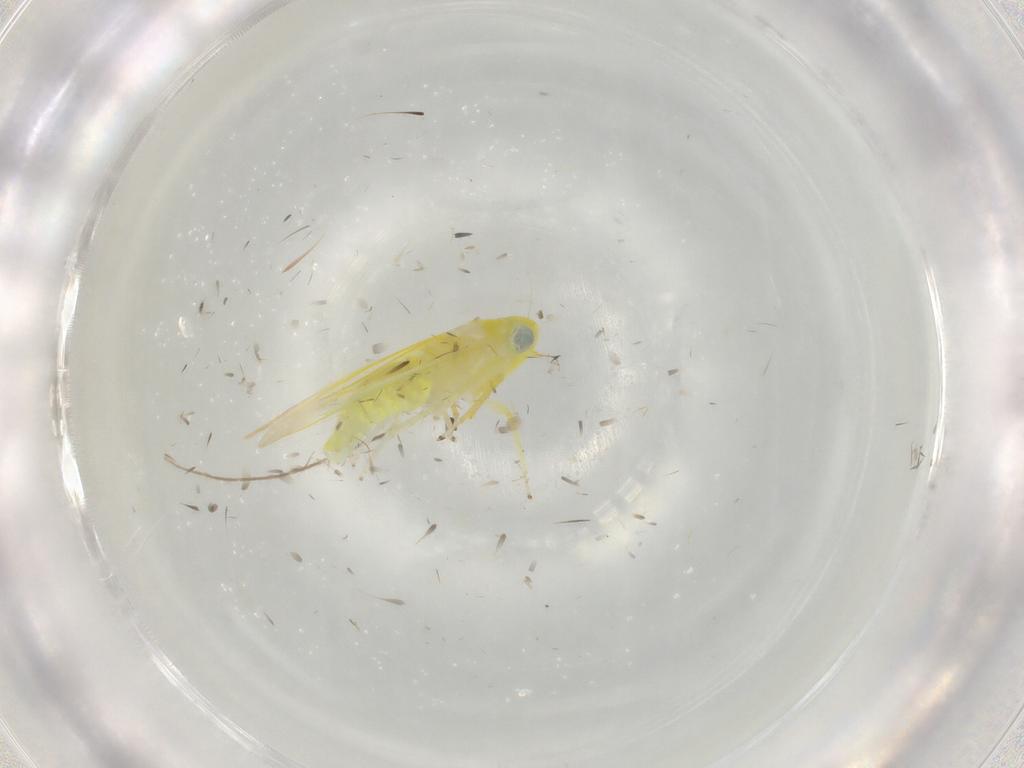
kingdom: Animalia
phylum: Arthropoda
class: Insecta
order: Hemiptera
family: Cicadellidae
